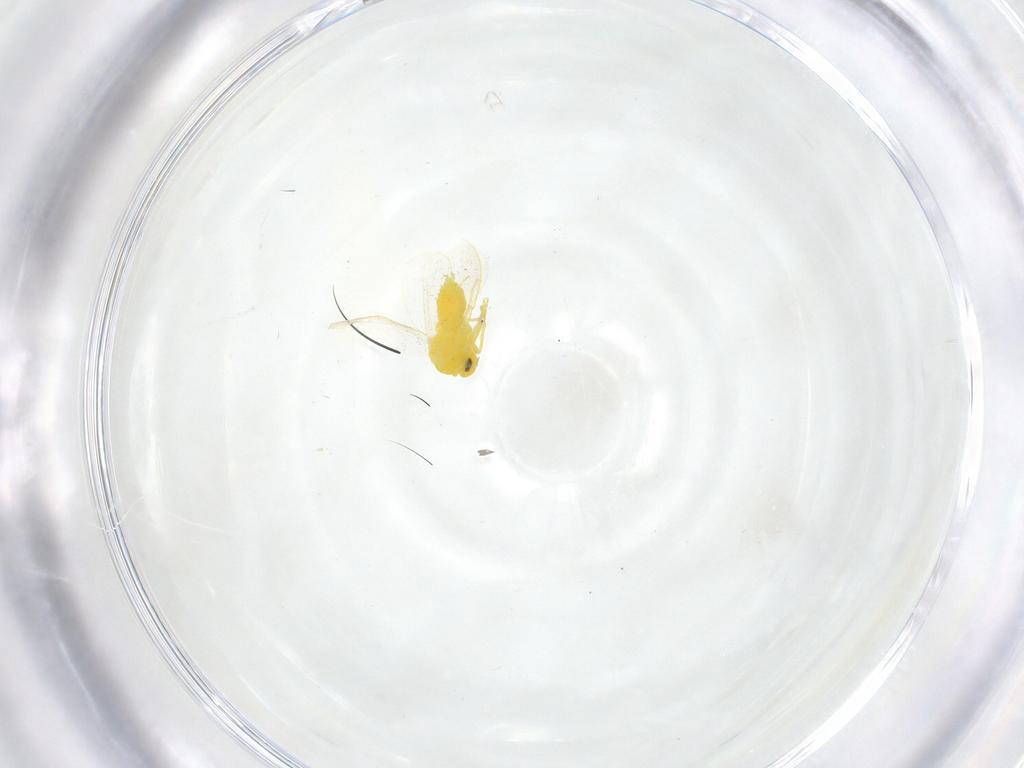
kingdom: Animalia
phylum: Arthropoda
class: Insecta
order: Hemiptera
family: Aleyrodidae
